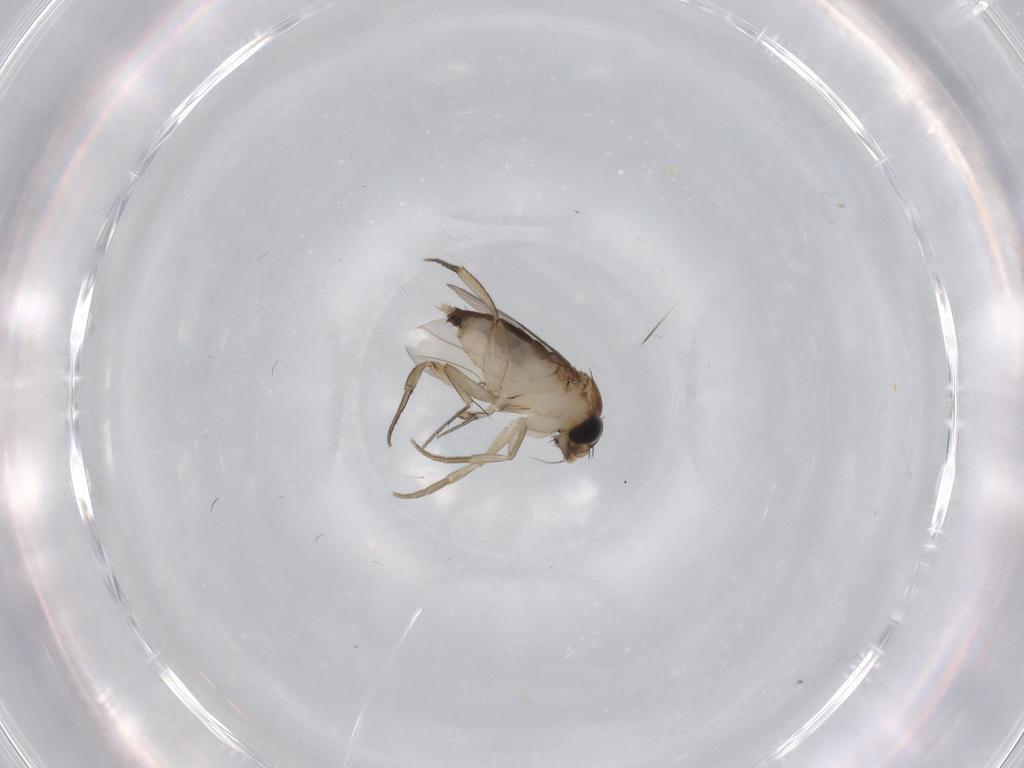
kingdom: Animalia
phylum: Arthropoda
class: Insecta
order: Diptera
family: Phoridae
